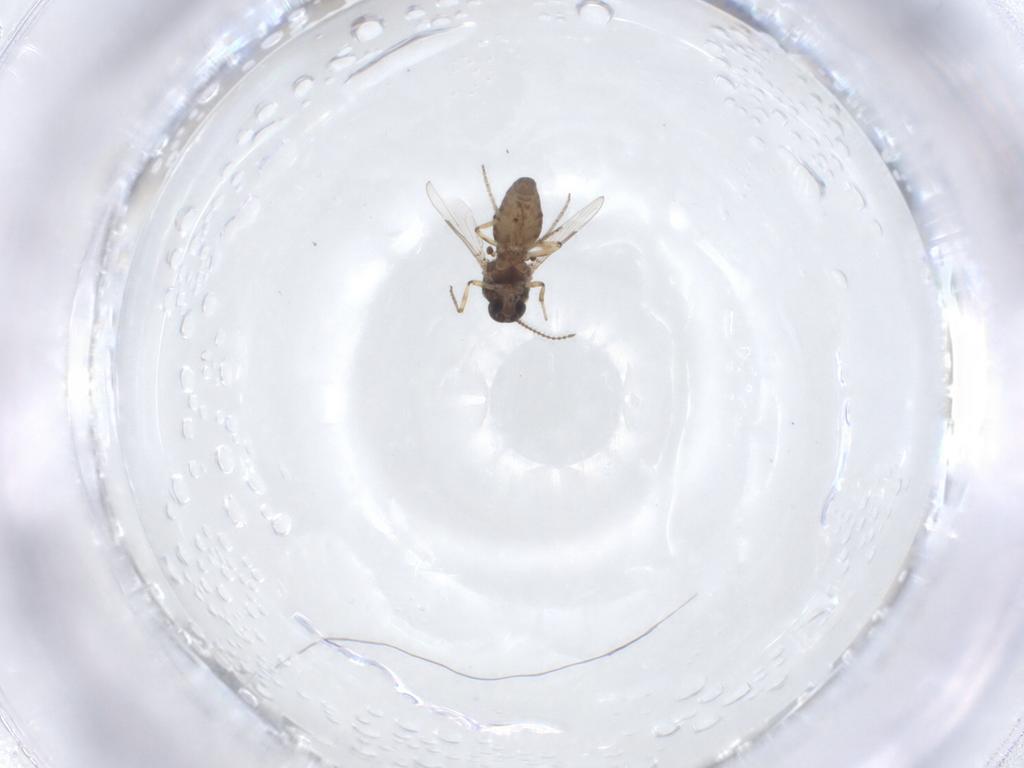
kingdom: Animalia
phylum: Arthropoda
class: Insecta
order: Diptera
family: Ceratopogonidae
